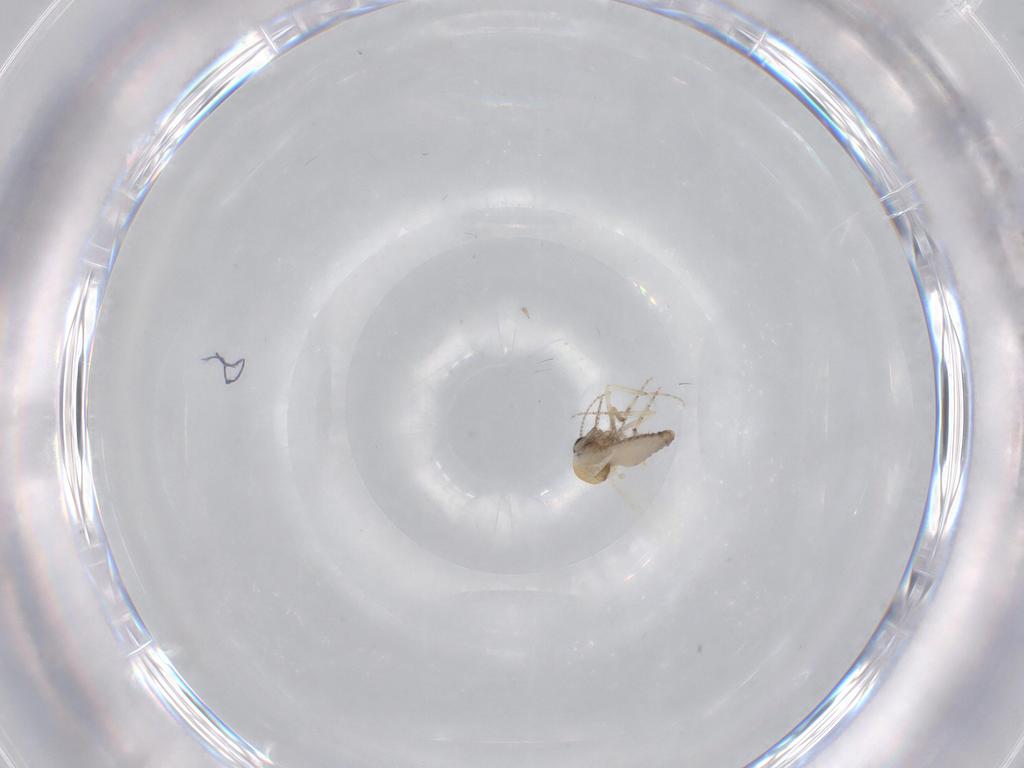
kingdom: Animalia
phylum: Arthropoda
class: Insecta
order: Diptera
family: Ceratopogonidae
